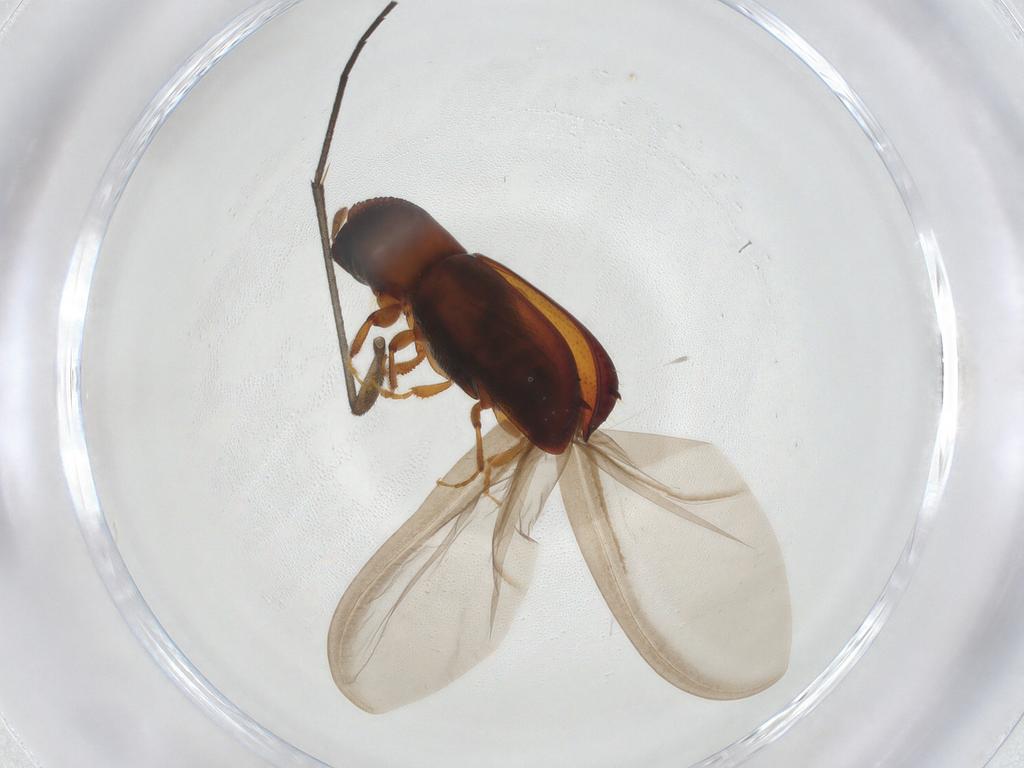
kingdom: Animalia
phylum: Arthropoda
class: Insecta
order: Coleoptera
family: Curculionidae
